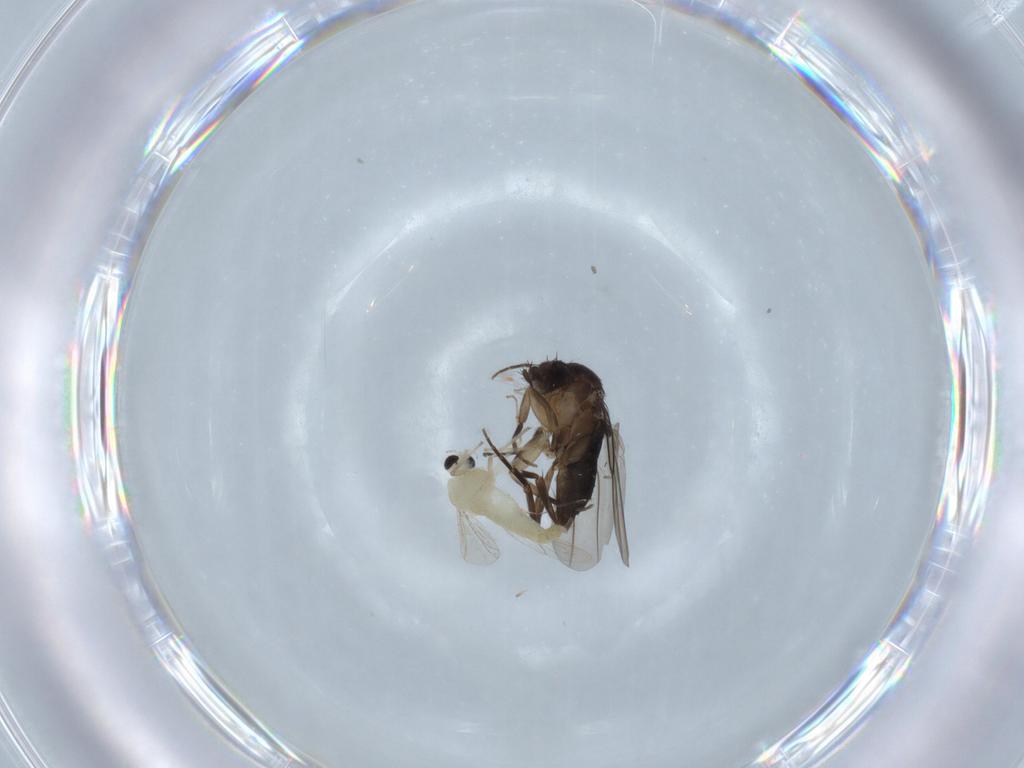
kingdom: Animalia
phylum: Arthropoda
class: Insecta
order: Diptera
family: Phoridae
